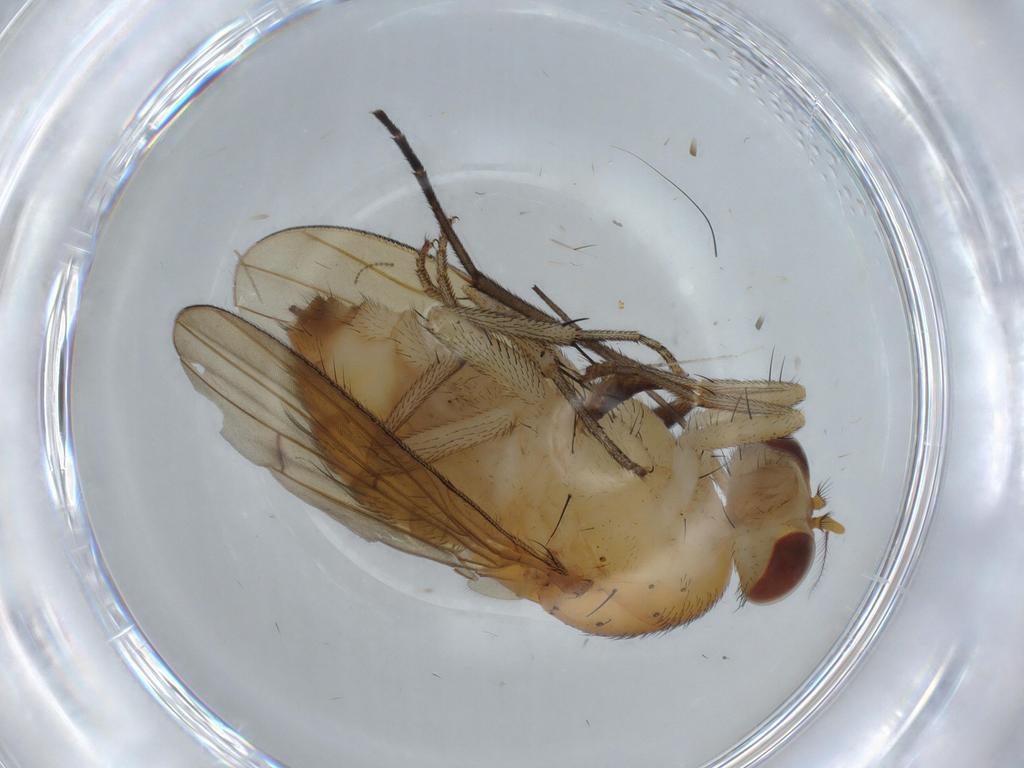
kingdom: Animalia
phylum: Arthropoda
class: Insecta
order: Diptera
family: Lauxaniidae
